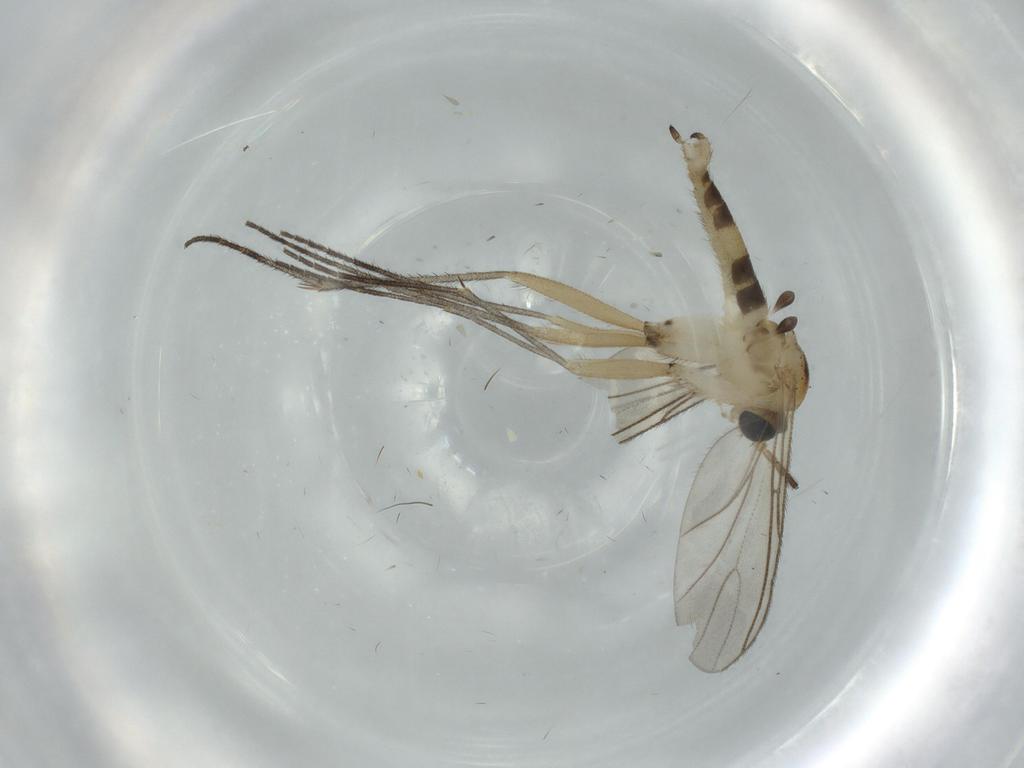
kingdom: Animalia
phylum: Arthropoda
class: Insecta
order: Diptera
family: Sciaridae
